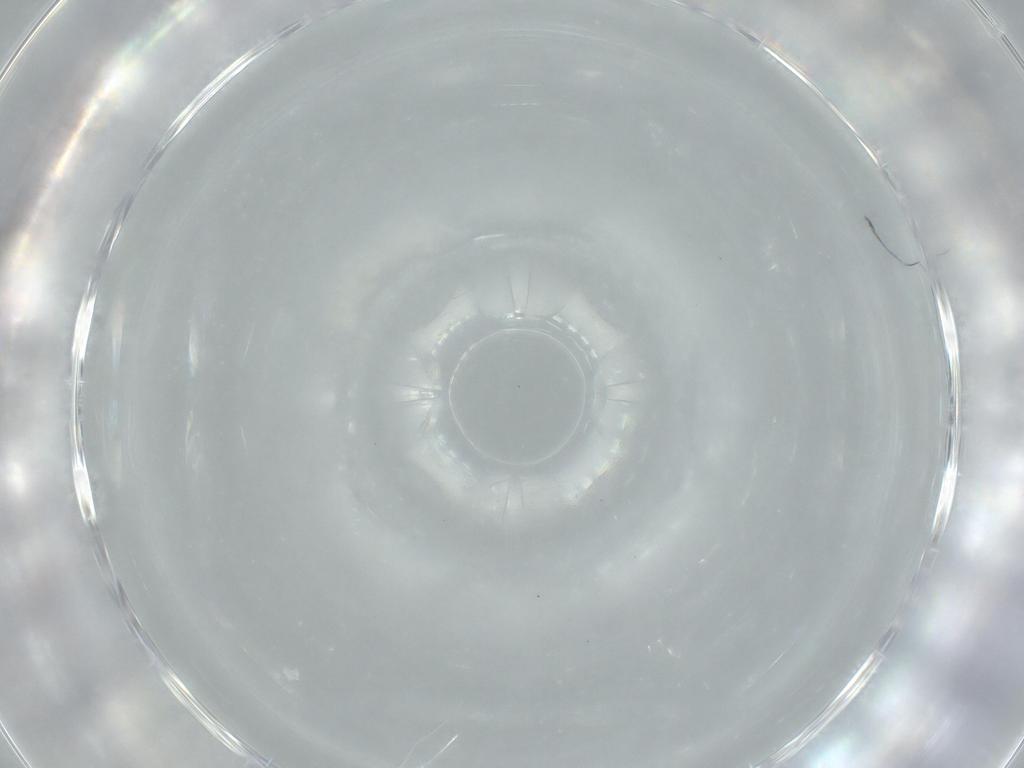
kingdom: Animalia
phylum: Arthropoda
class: Insecta
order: Diptera
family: Milichiidae
